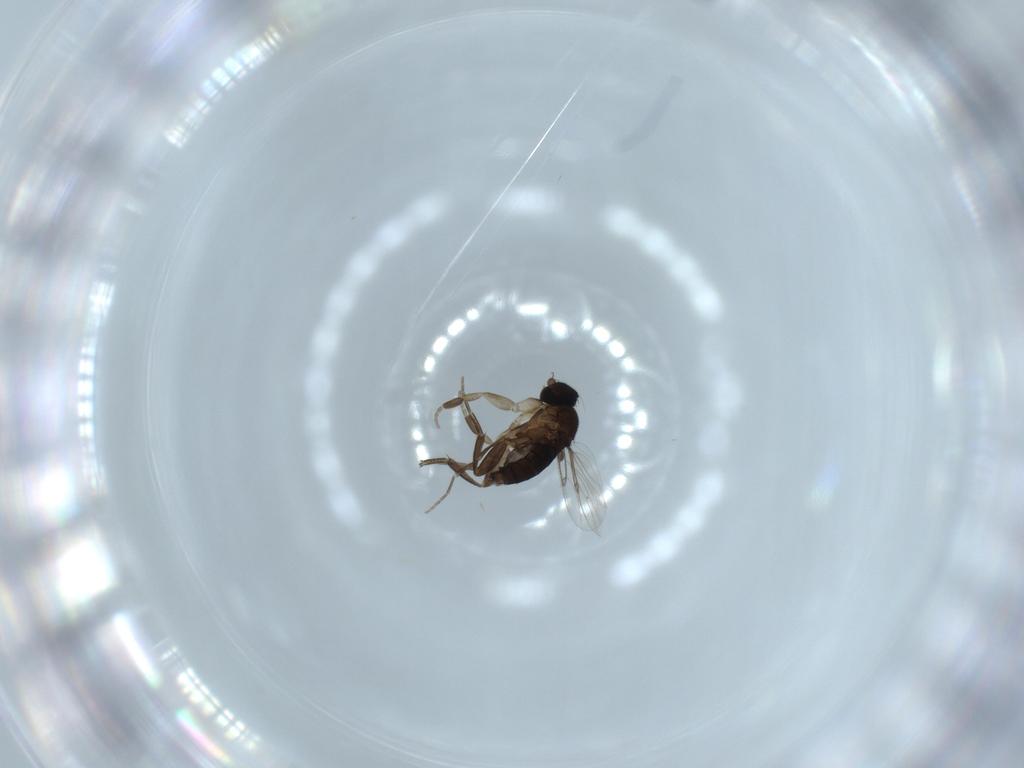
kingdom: Animalia
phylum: Arthropoda
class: Insecta
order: Diptera
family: Phoridae
